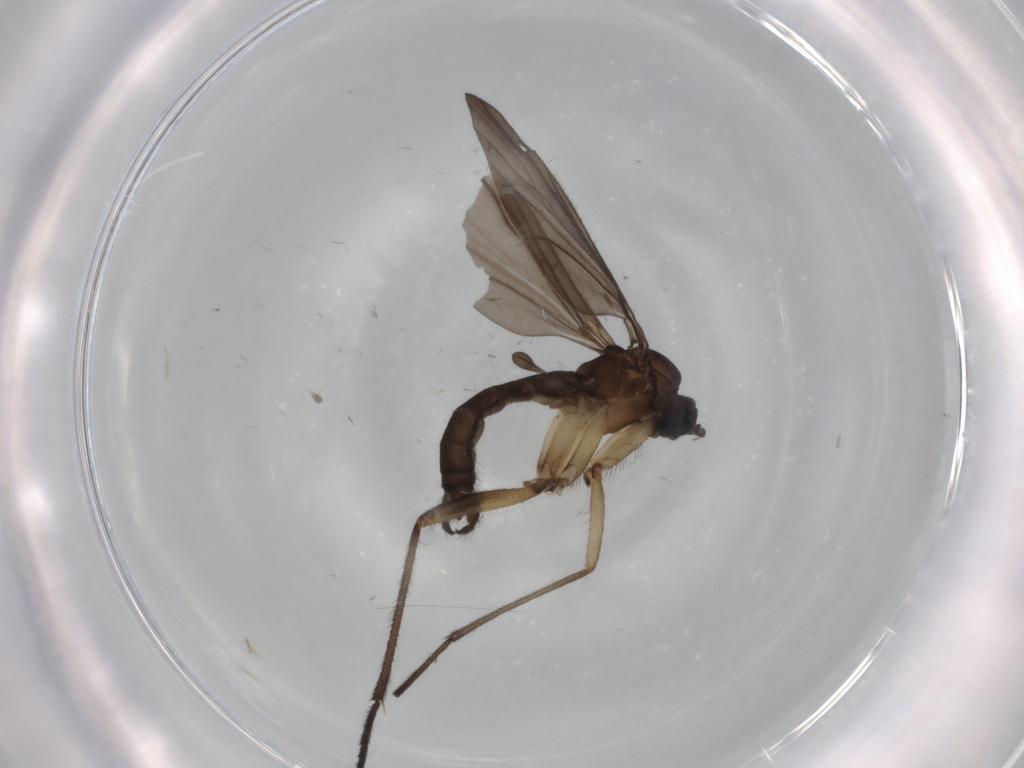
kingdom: Animalia
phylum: Arthropoda
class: Insecta
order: Diptera
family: Sciaridae
